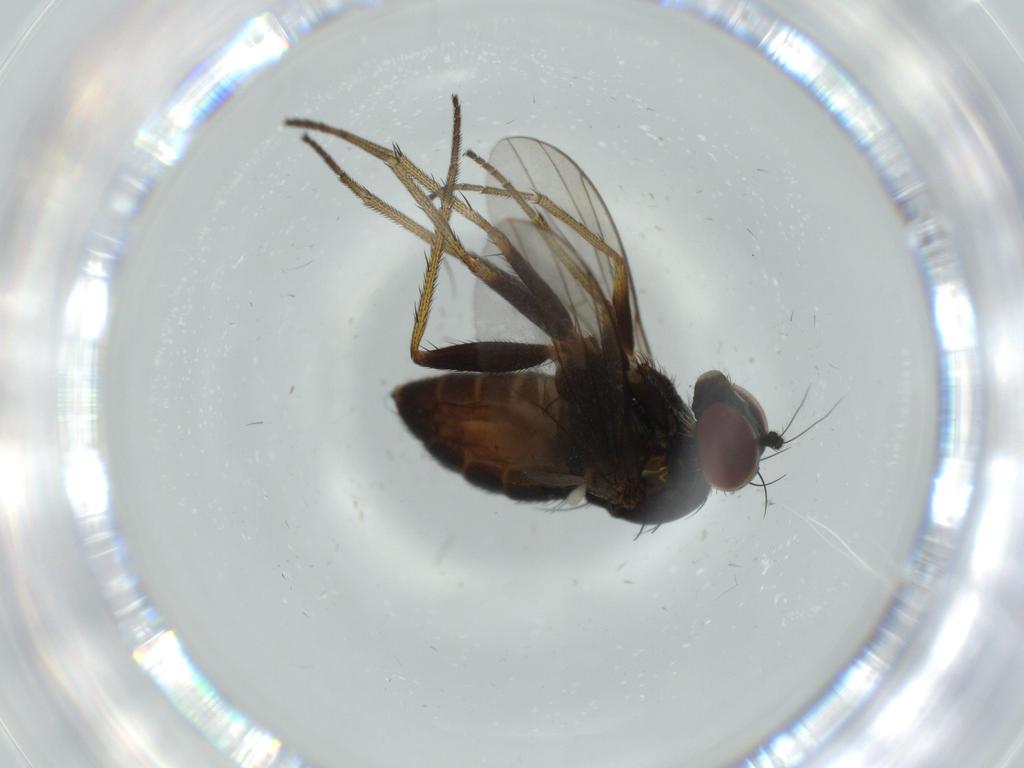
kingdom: Animalia
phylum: Arthropoda
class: Insecta
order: Diptera
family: Dolichopodidae
